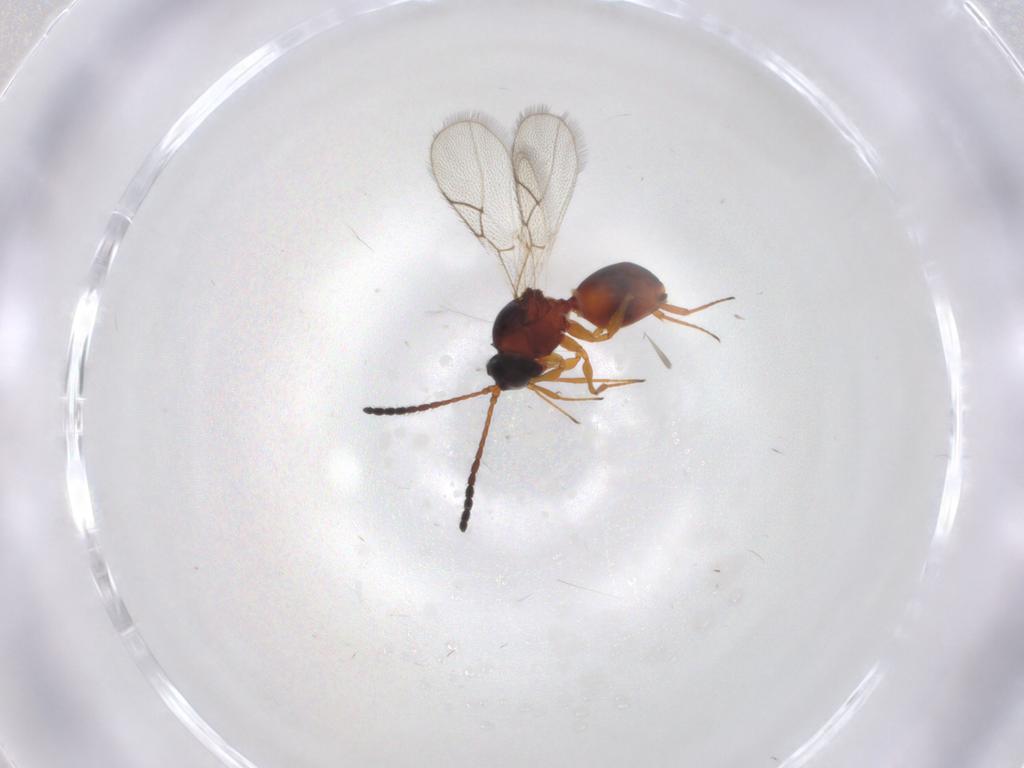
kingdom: Animalia
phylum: Arthropoda
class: Insecta
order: Hymenoptera
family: Figitidae
